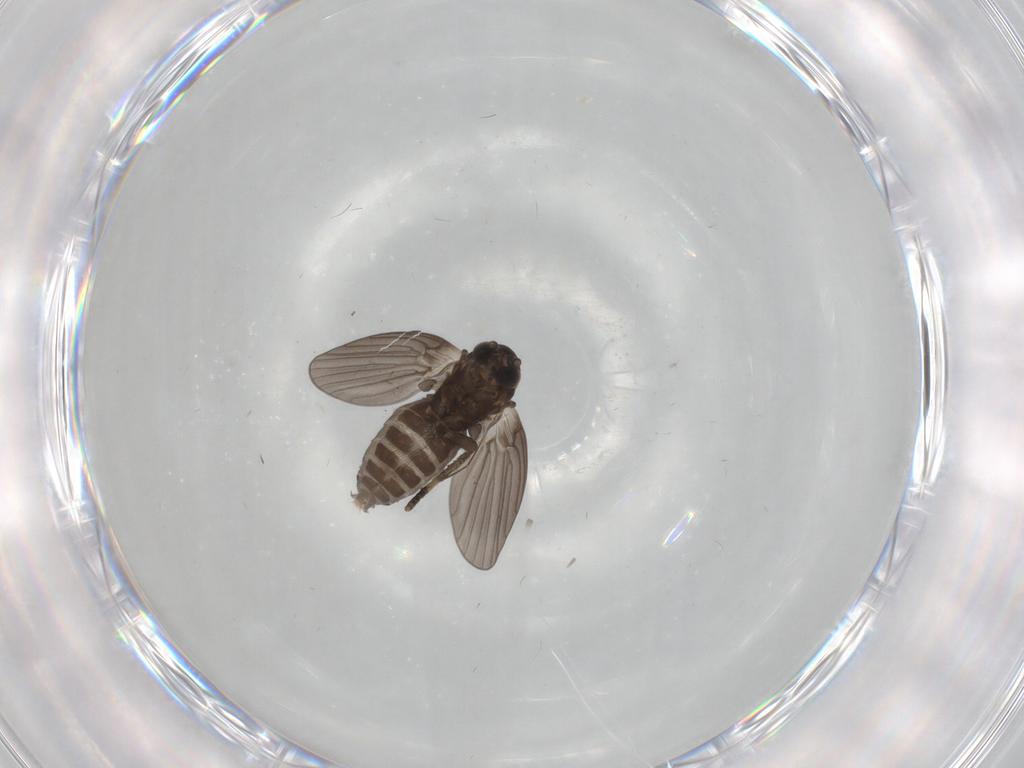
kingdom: Animalia
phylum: Arthropoda
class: Insecta
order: Diptera
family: Psychodidae
